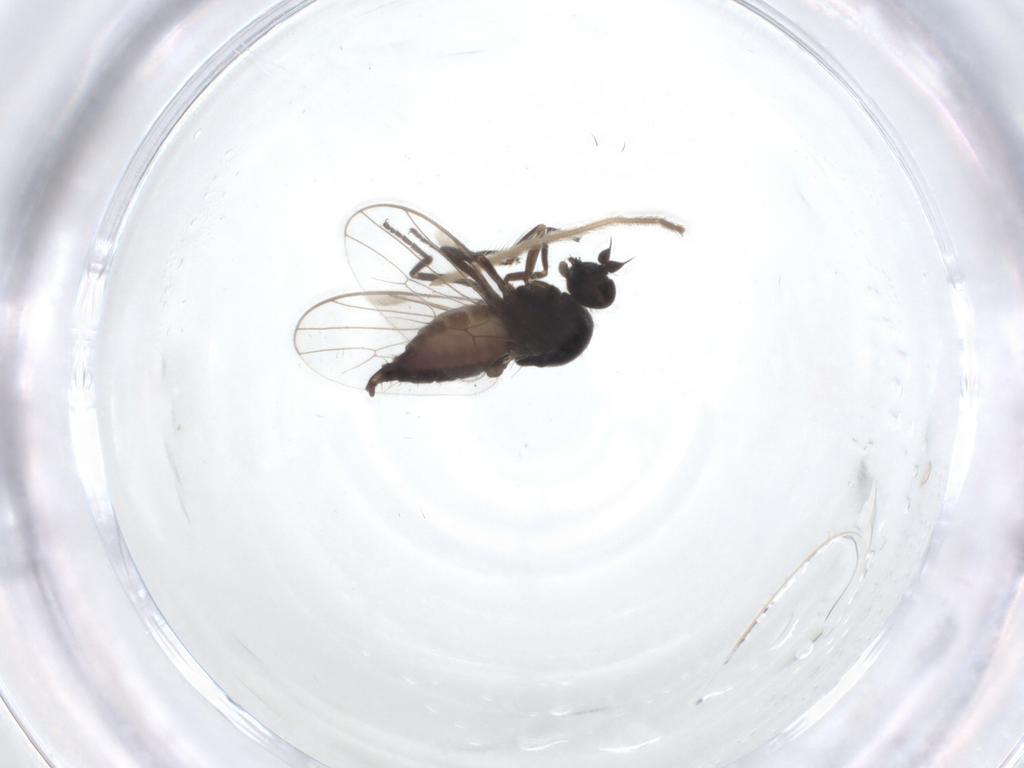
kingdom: Animalia
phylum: Arthropoda
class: Insecta
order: Diptera
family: Hybotidae
